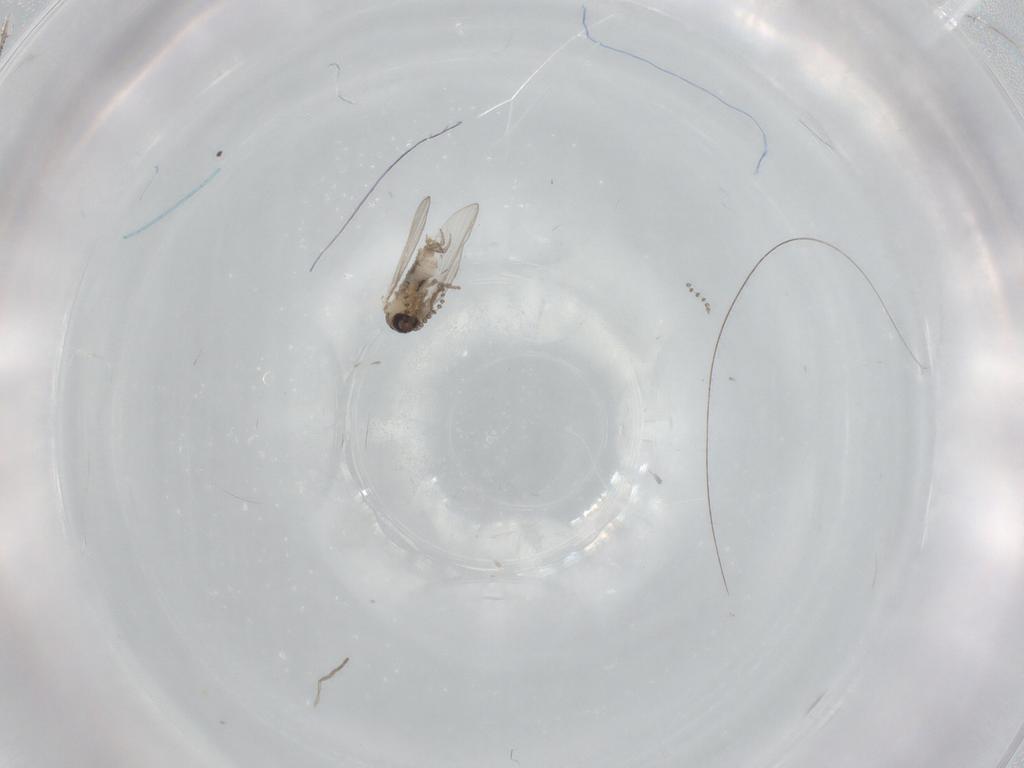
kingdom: Animalia
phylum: Arthropoda
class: Insecta
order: Diptera
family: Psychodidae
